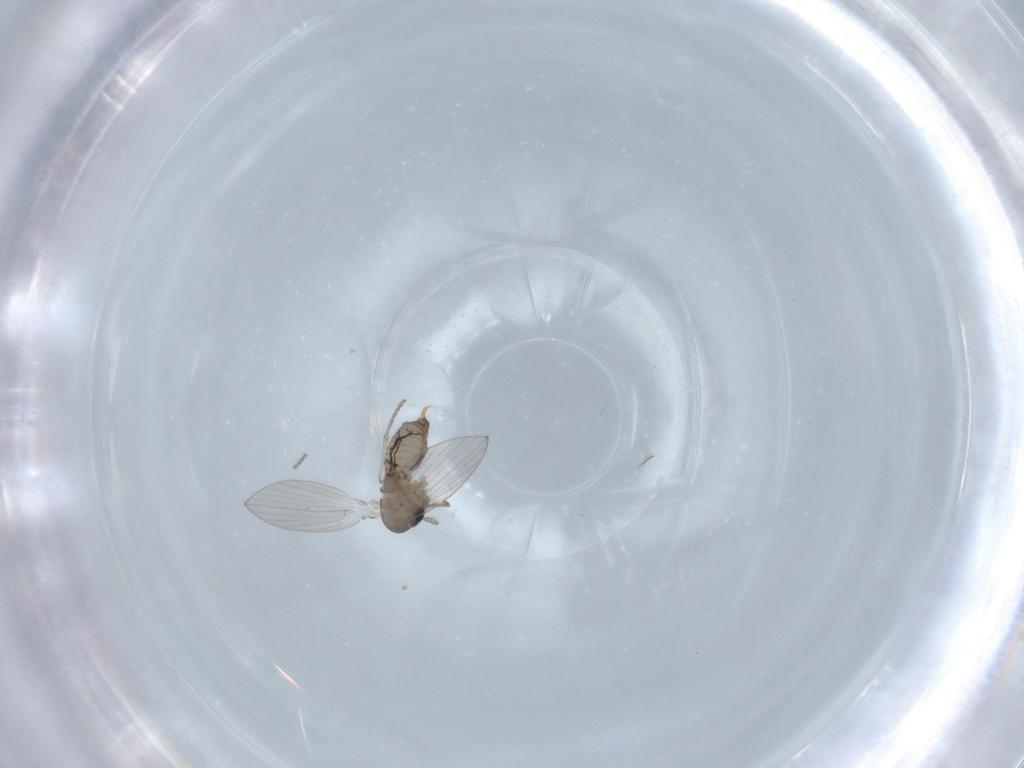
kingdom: Animalia
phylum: Arthropoda
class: Insecta
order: Diptera
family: Psychodidae
